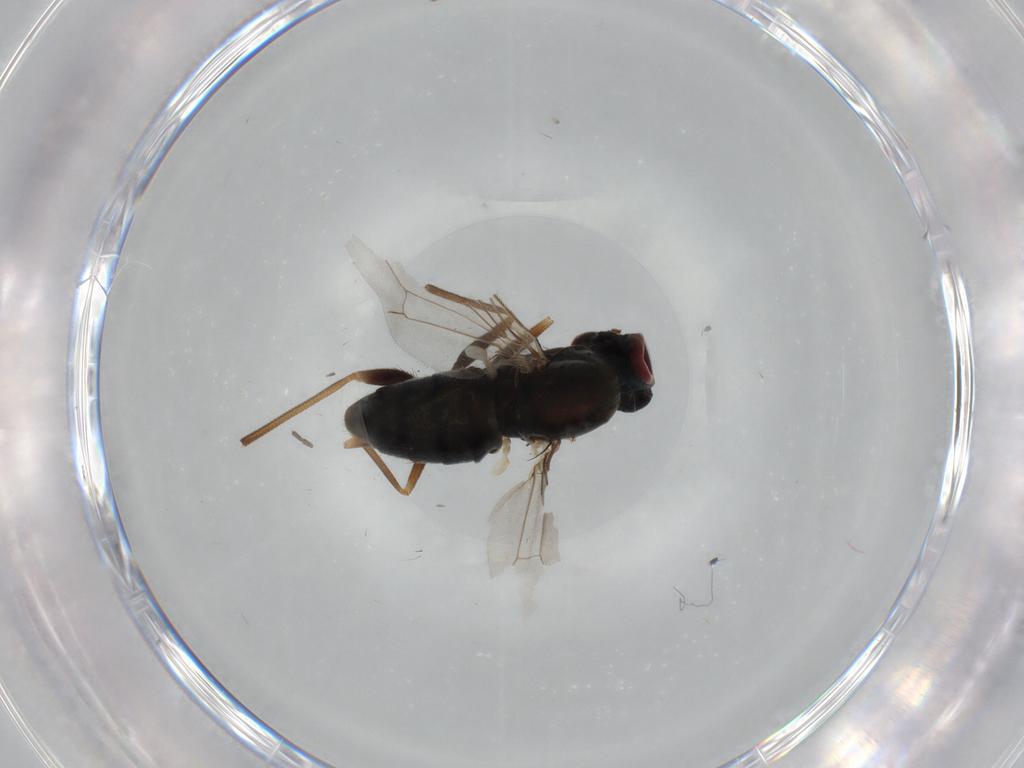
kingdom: Animalia
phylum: Arthropoda
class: Insecta
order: Diptera
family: Dolichopodidae
